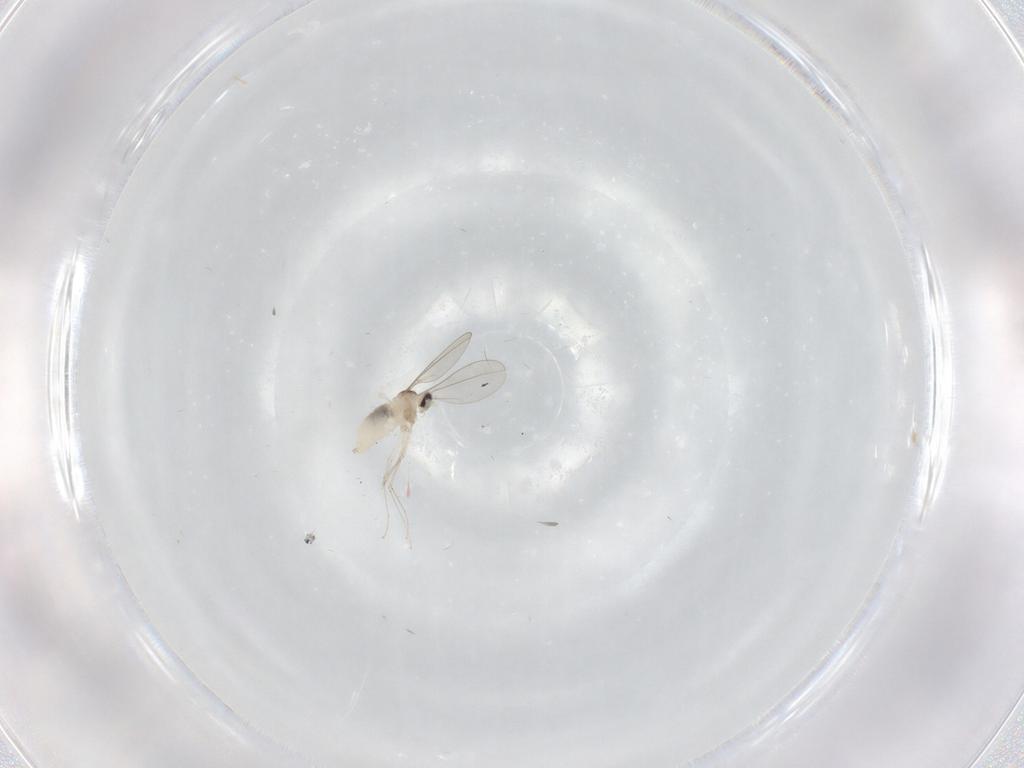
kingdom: Animalia
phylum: Arthropoda
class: Insecta
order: Diptera
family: Cecidomyiidae
